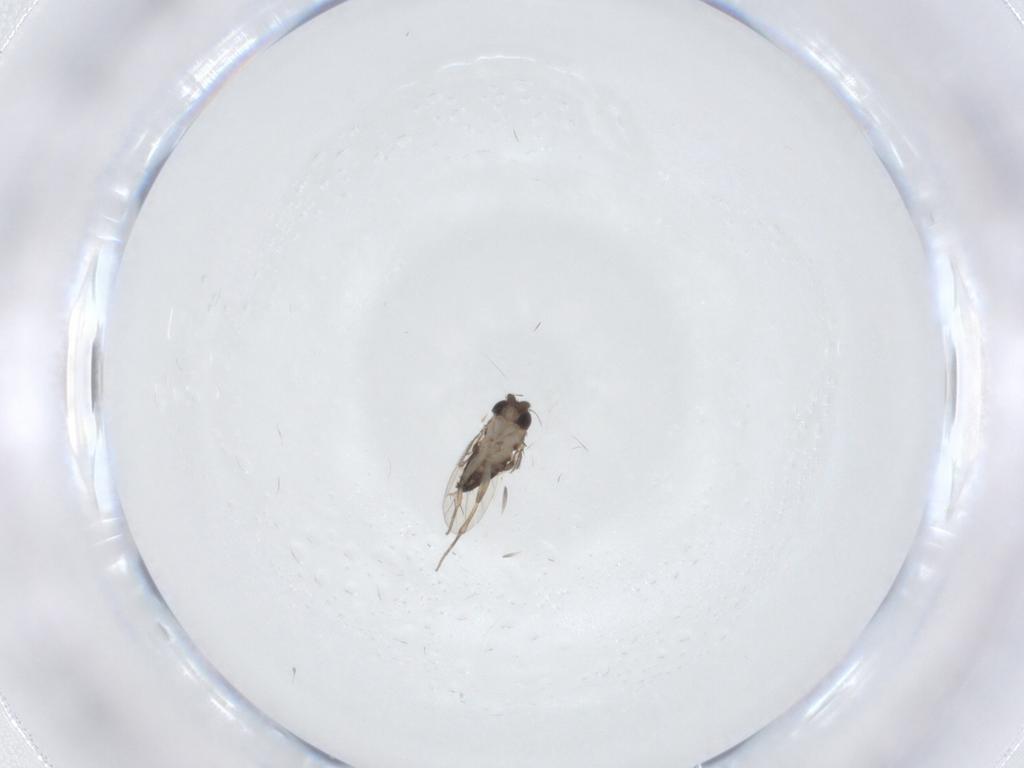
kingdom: Animalia
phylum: Arthropoda
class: Insecta
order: Diptera
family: Phoridae
